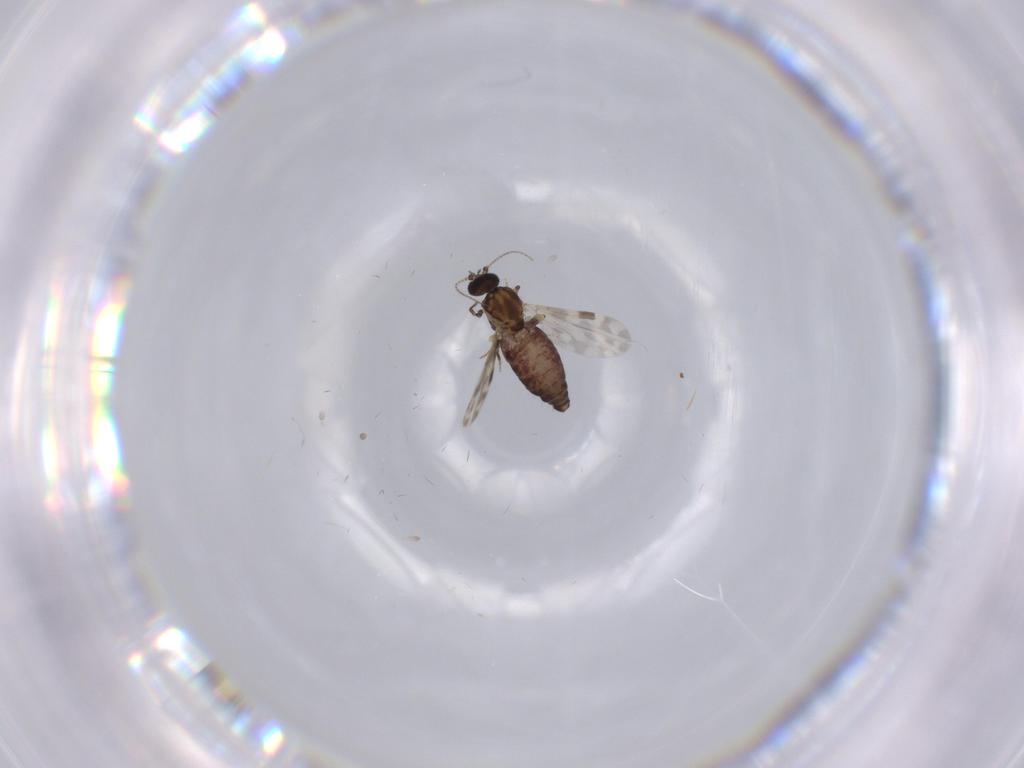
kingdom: Animalia
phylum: Arthropoda
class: Insecta
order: Diptera
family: Ceratopogonidae
